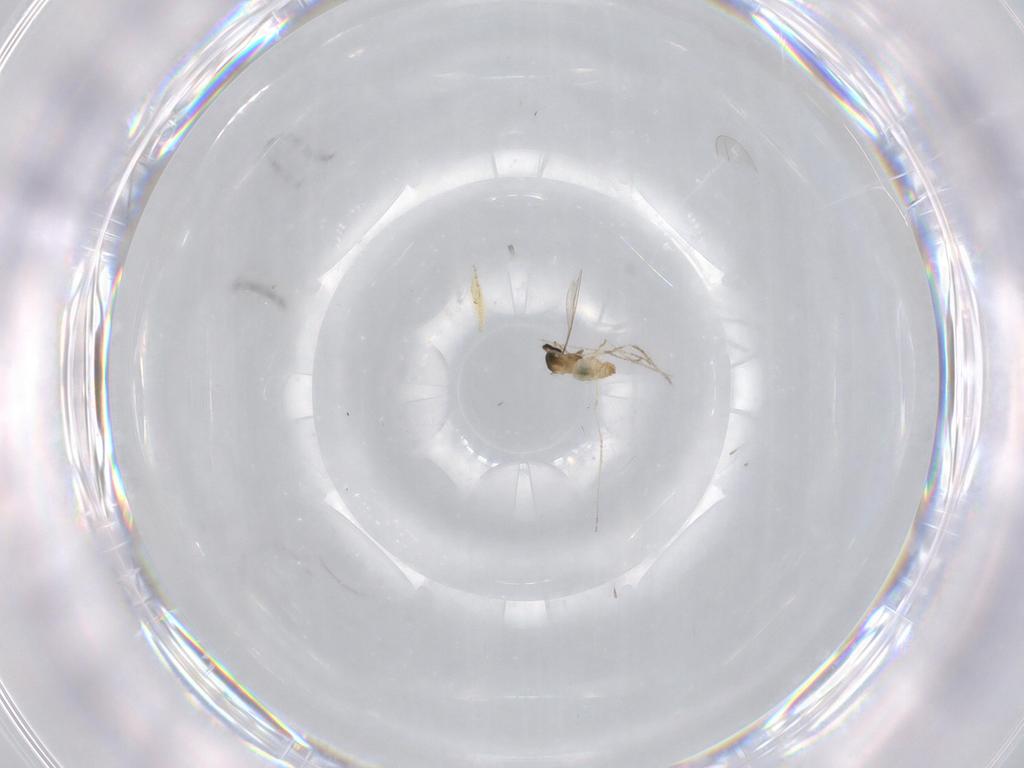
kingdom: Animalia
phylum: Arthropoda
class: Insecta
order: Diptera
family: Cecidomyiidae
